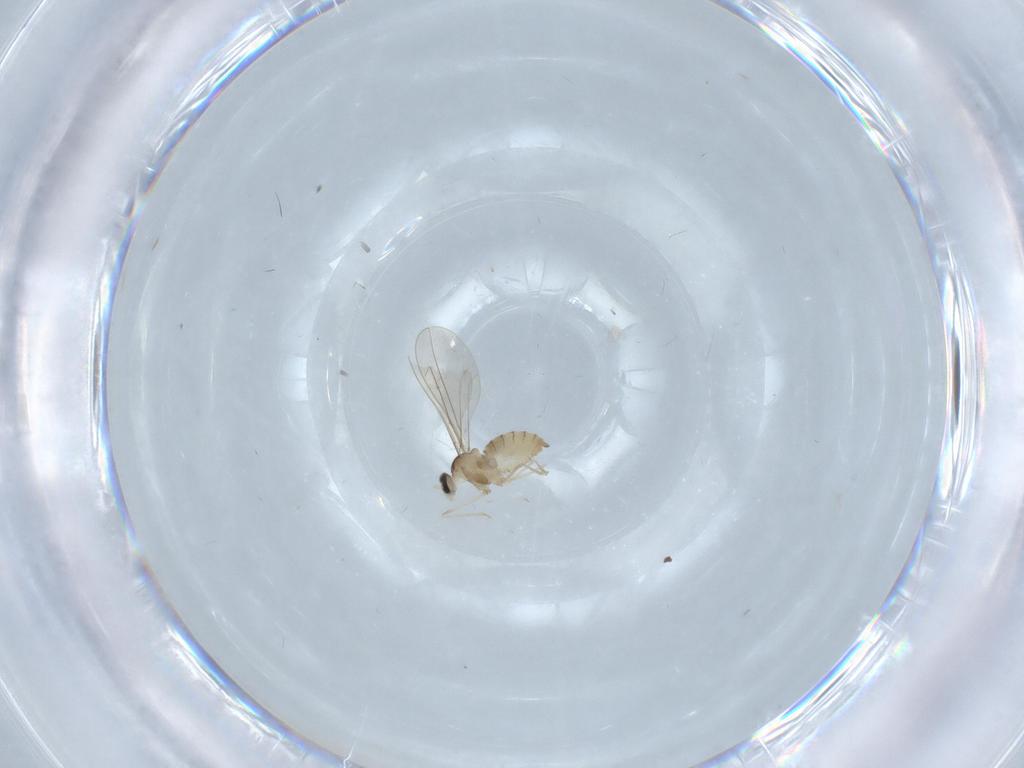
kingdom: Animalia
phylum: Arthropoda
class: Insecta
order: Diptera
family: Cecidomyiidae
